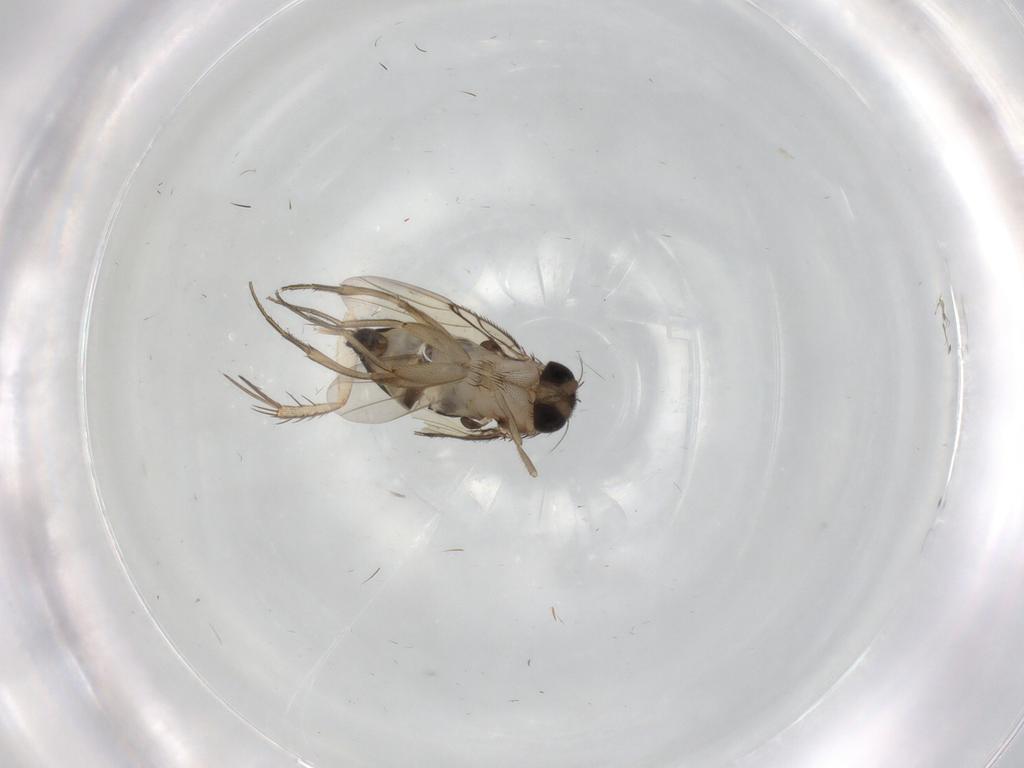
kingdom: Animalia
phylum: Arthropoda
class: Insecta
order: Diptera
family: Phoridae
